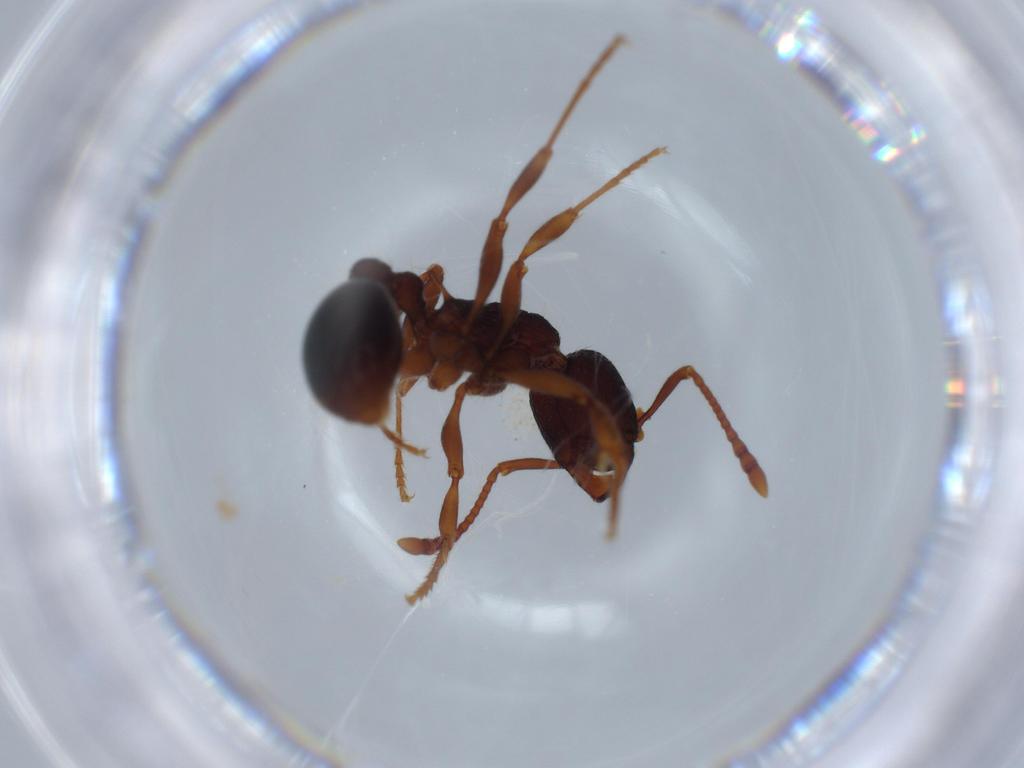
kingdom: Animalia
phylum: Arthropoda
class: Insecta
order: Hymenoptera
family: Formicidae
